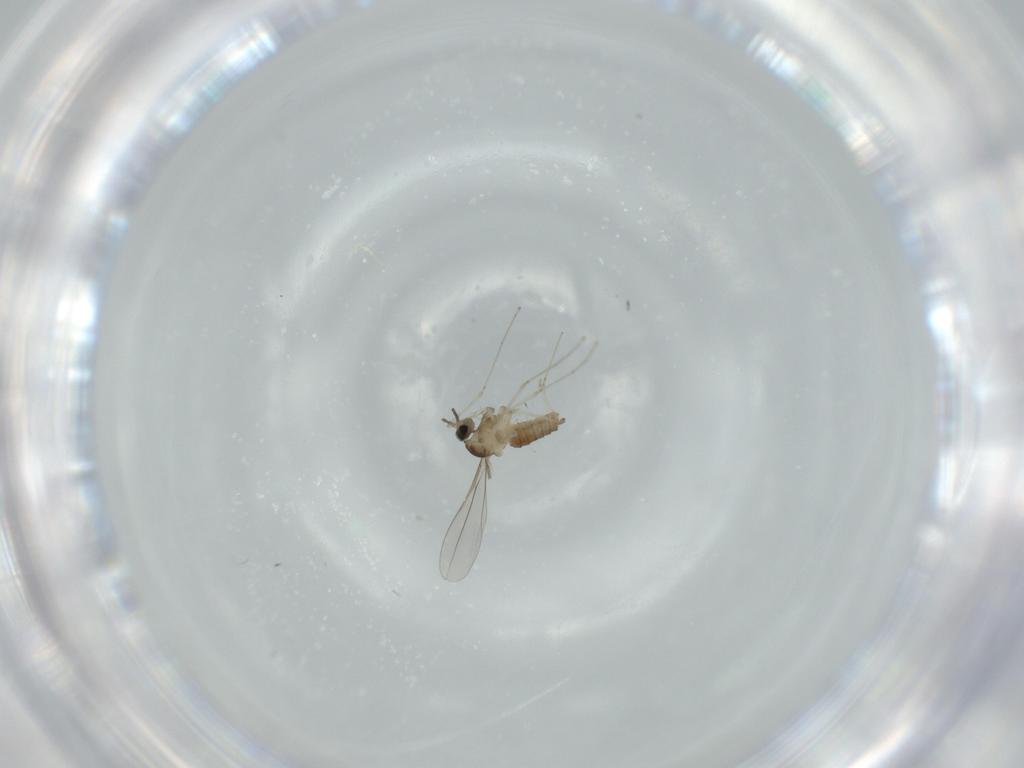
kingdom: Animalia
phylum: Arthropoda
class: Insecta
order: Diptera
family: Cecidomyiidae
